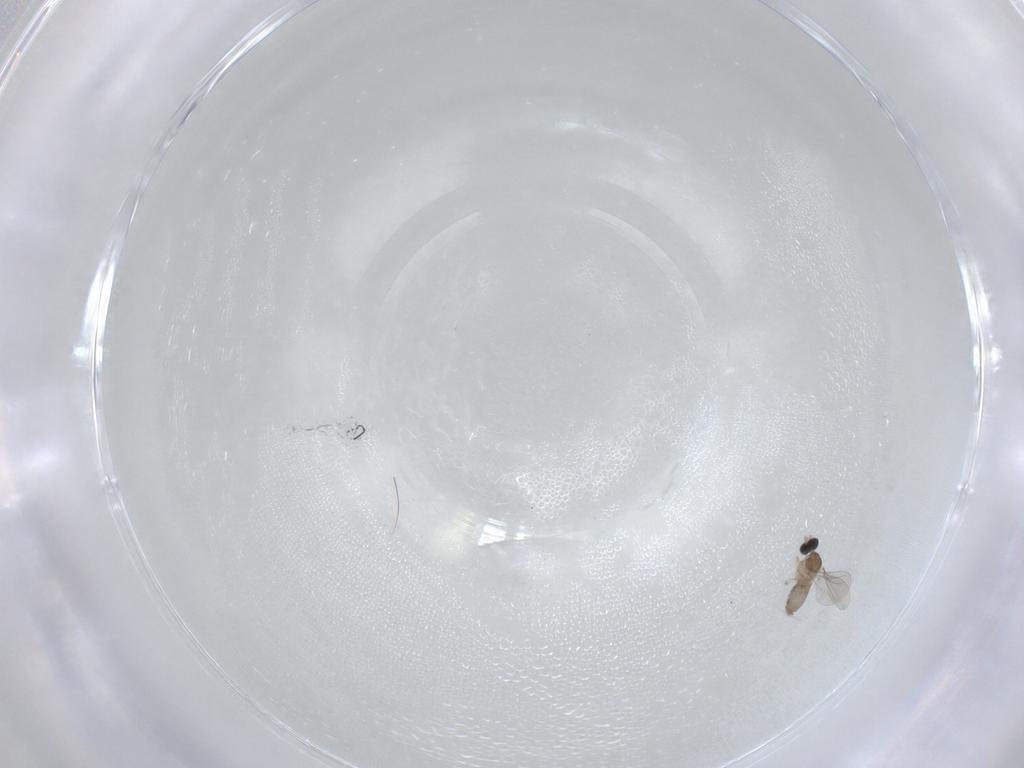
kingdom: Animalia
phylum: Arthropoda
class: Insecta
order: Diptera
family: Cecidomyiidae
